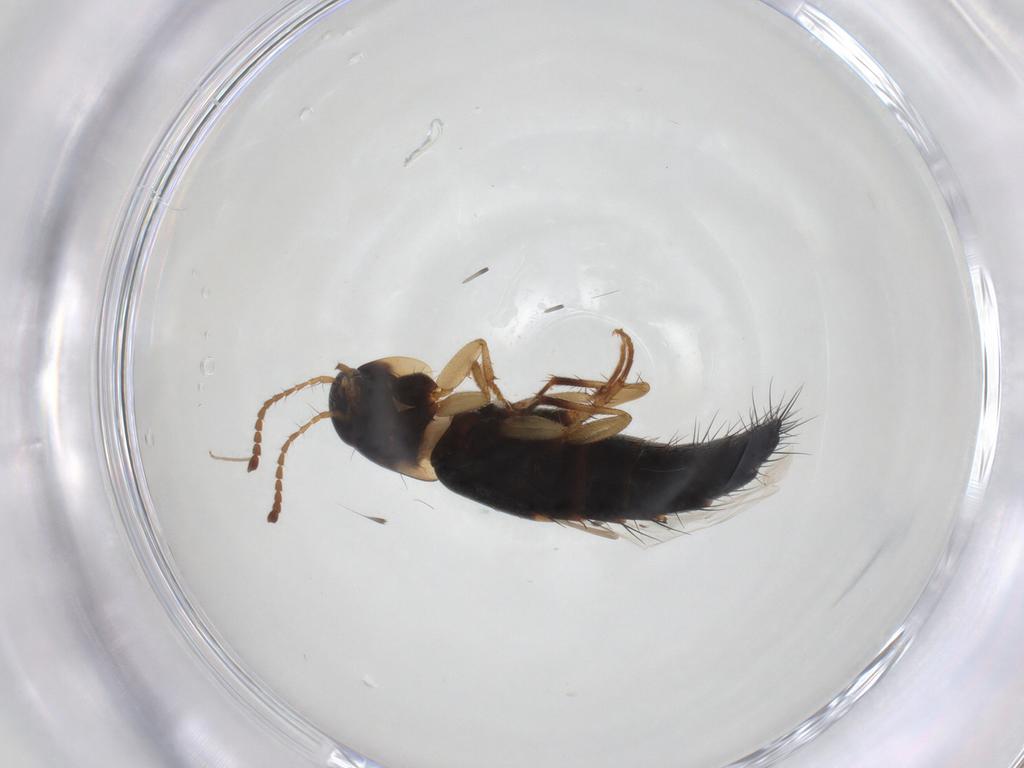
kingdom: Animalia
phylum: Arthropoda
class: Insecta
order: Coleoptera
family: Staphylinidae
